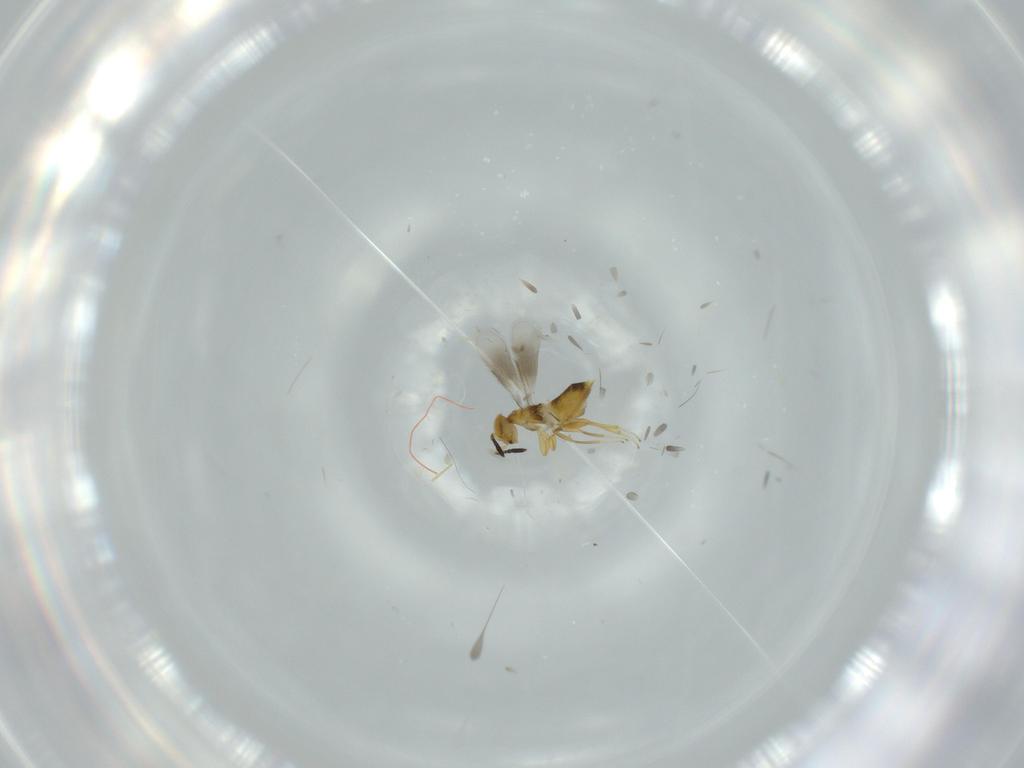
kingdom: Animalia
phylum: Arthropoda
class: Insecta
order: Hymenoptera
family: Aphelinidae
